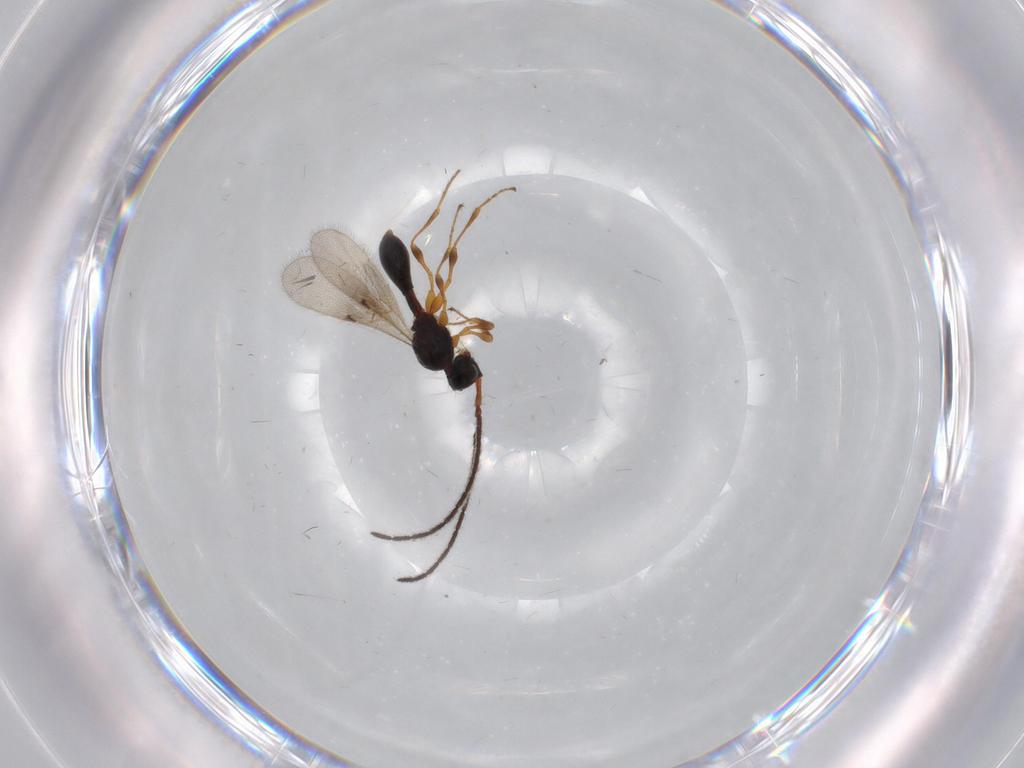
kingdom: Animalia
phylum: Arthropoda
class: Insecta
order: Hymenoptera
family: Diapriidae
